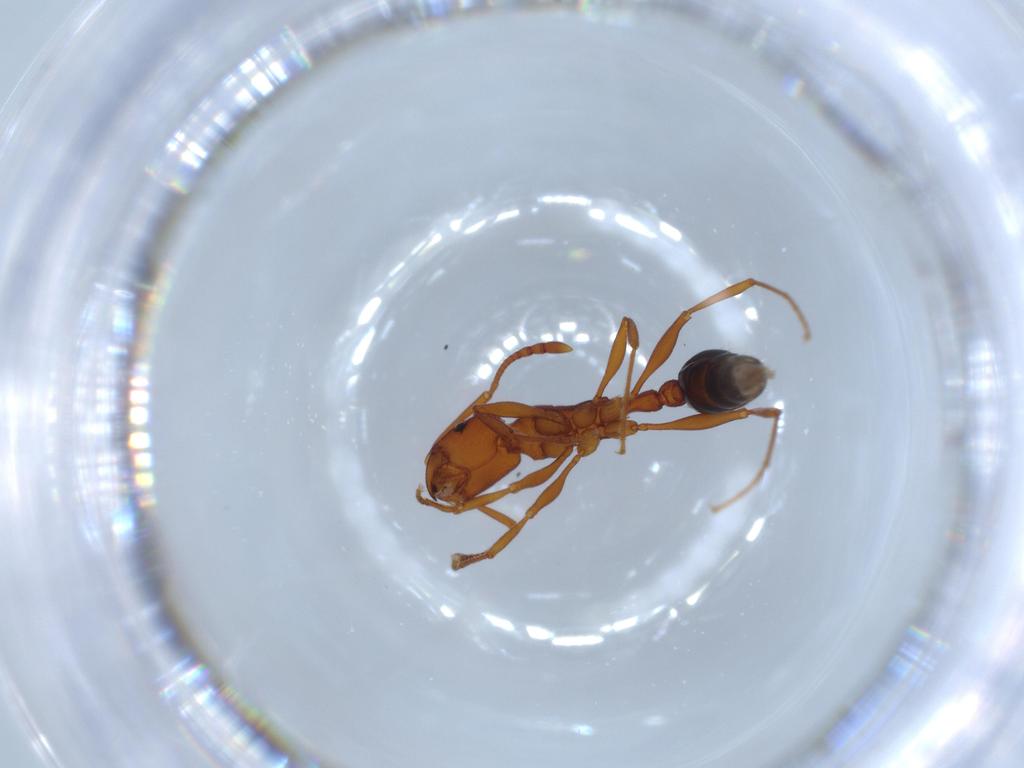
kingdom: Animalia
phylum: Arthropoda
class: Insecta
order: Hymenoptera
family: Formicidae
